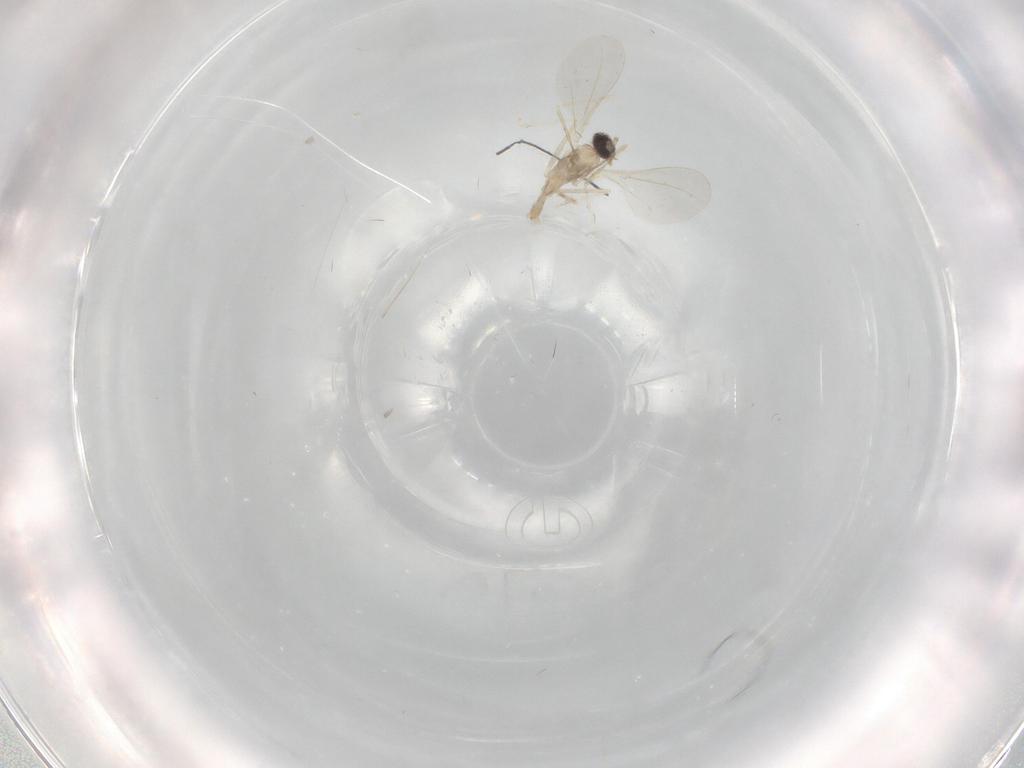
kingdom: Animalia
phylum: Arthropoda
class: Insecta
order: Diptera
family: Cecidomyiidae
